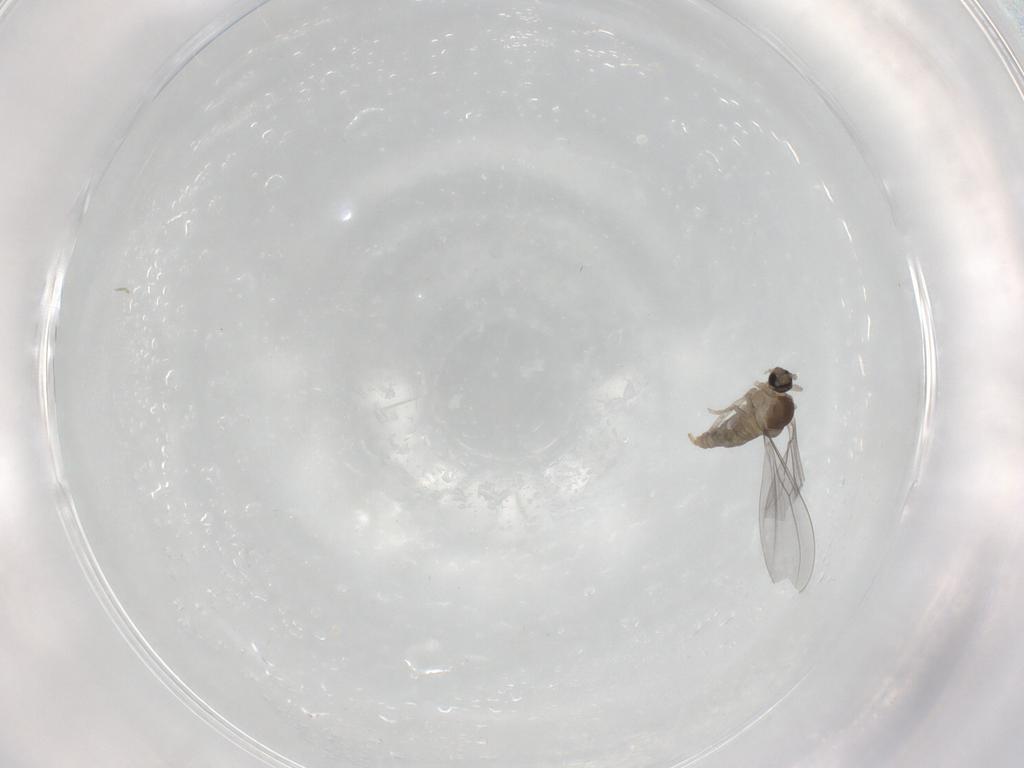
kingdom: Animalia
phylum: Arthropoda
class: Insecta
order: Diptera
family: Cecidomyiidae
